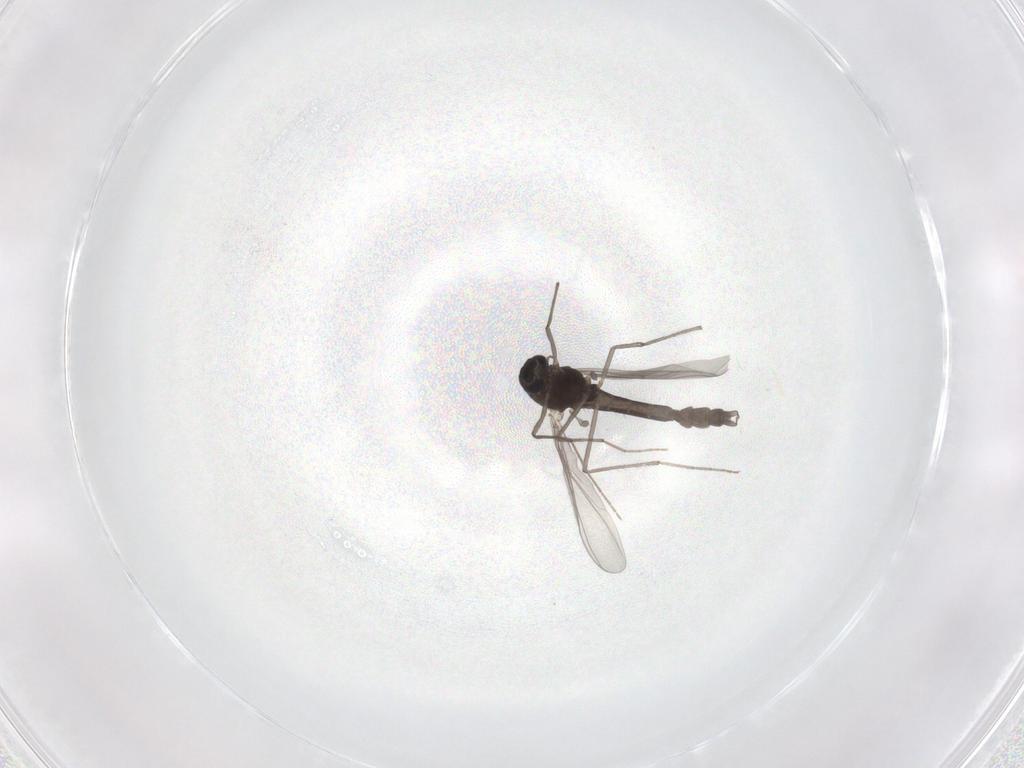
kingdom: Animalia
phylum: Arthropoda
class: Insecta
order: Diptera
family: Chironomidae
